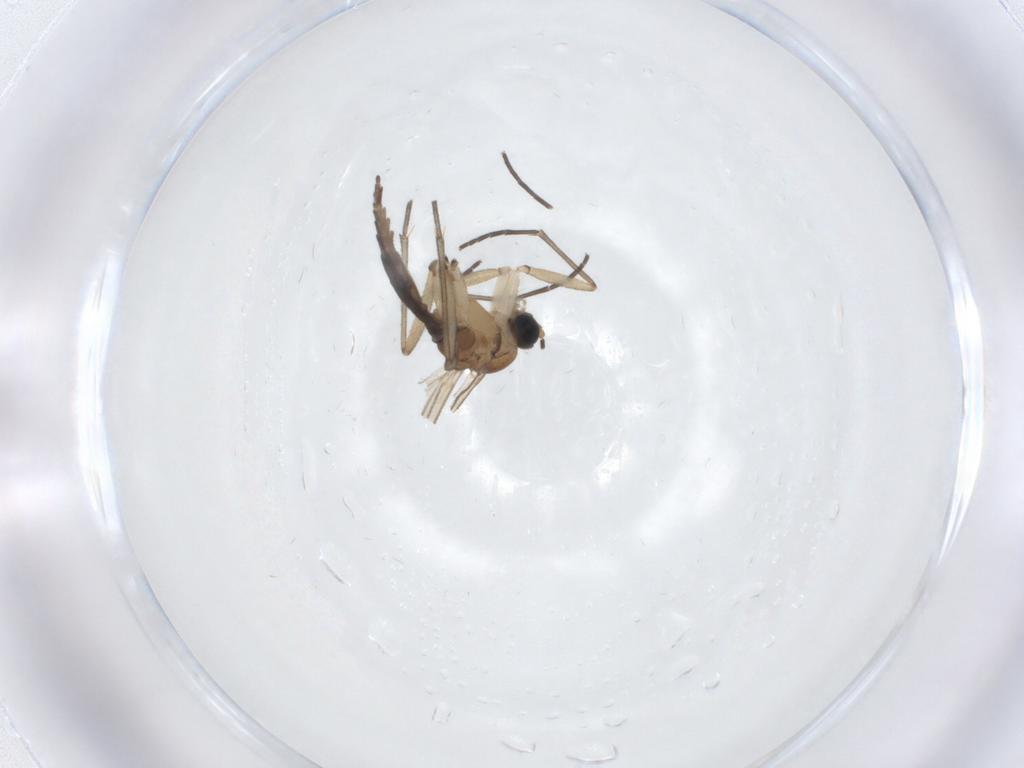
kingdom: Animalia
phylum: Arthropoda
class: Insecta
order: Diptera
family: Sciaridae
